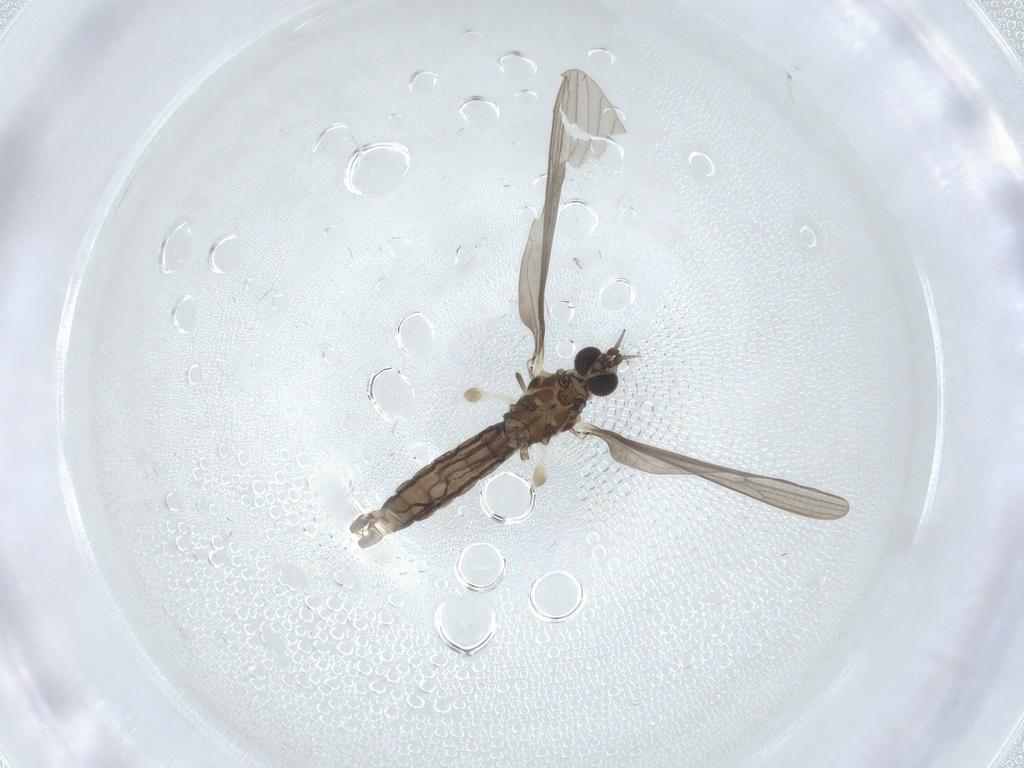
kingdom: Animalia
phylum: Arthropoda
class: Insecta
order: Diptera
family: Limoniidae
